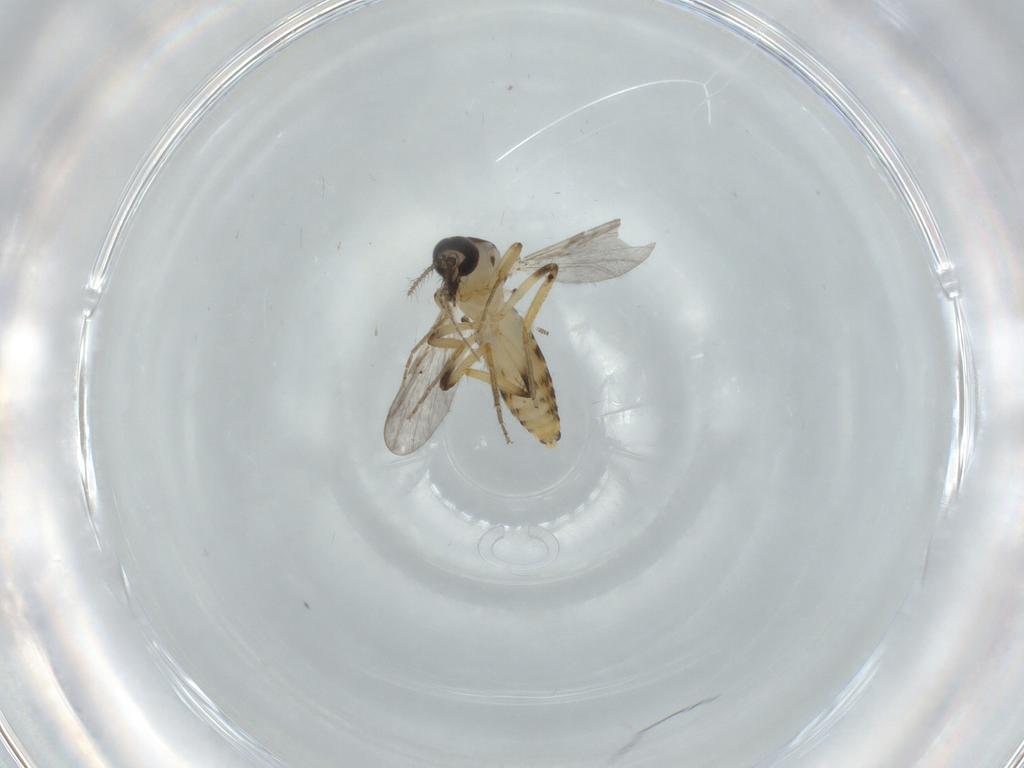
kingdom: Animalia
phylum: Arthropoda
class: Insecta
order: Diptera
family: Ceratopogonidae
